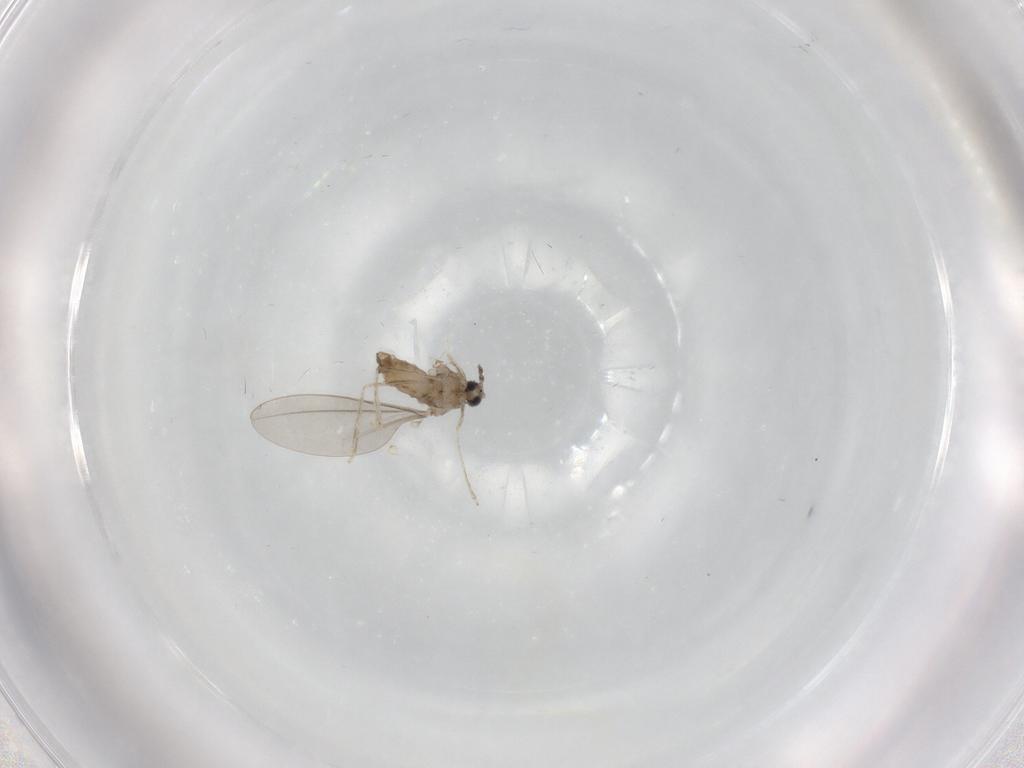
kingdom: Animalia
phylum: Arthropoda
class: Insecta
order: Diptera
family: Cecidomyiidae
